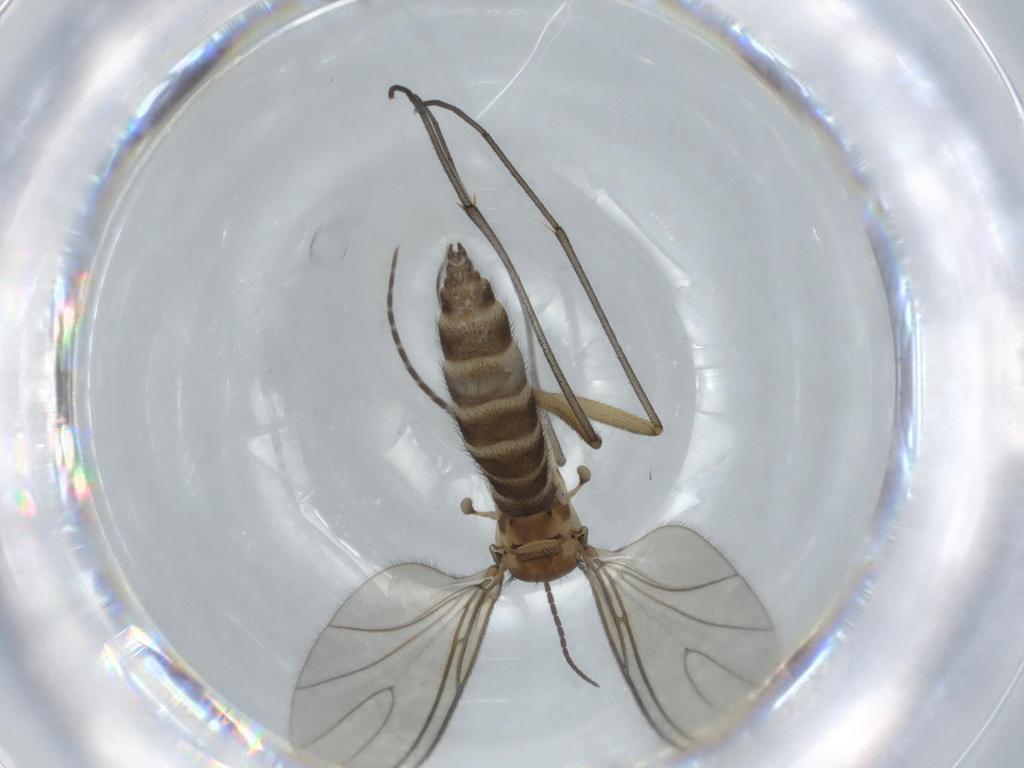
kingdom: Animalia
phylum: Arthropoda
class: Insecta
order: Diptera
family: Sciaridae
